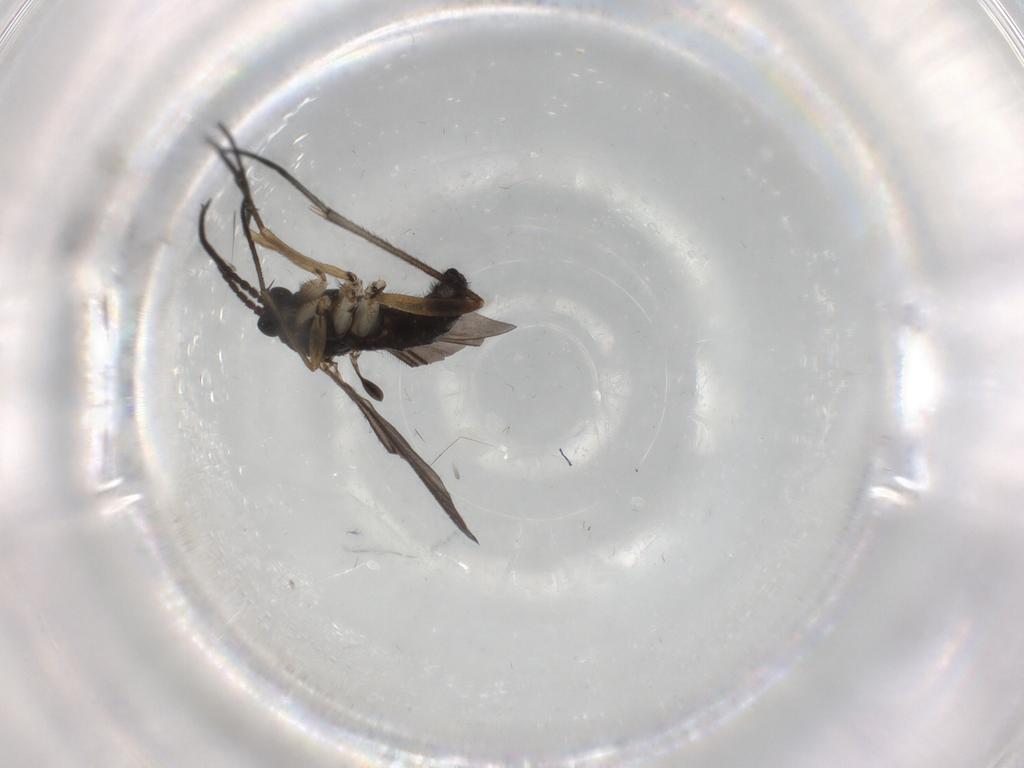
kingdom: Animalia
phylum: Arthropoda
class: Insecta
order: Diptera
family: Sciaridae
